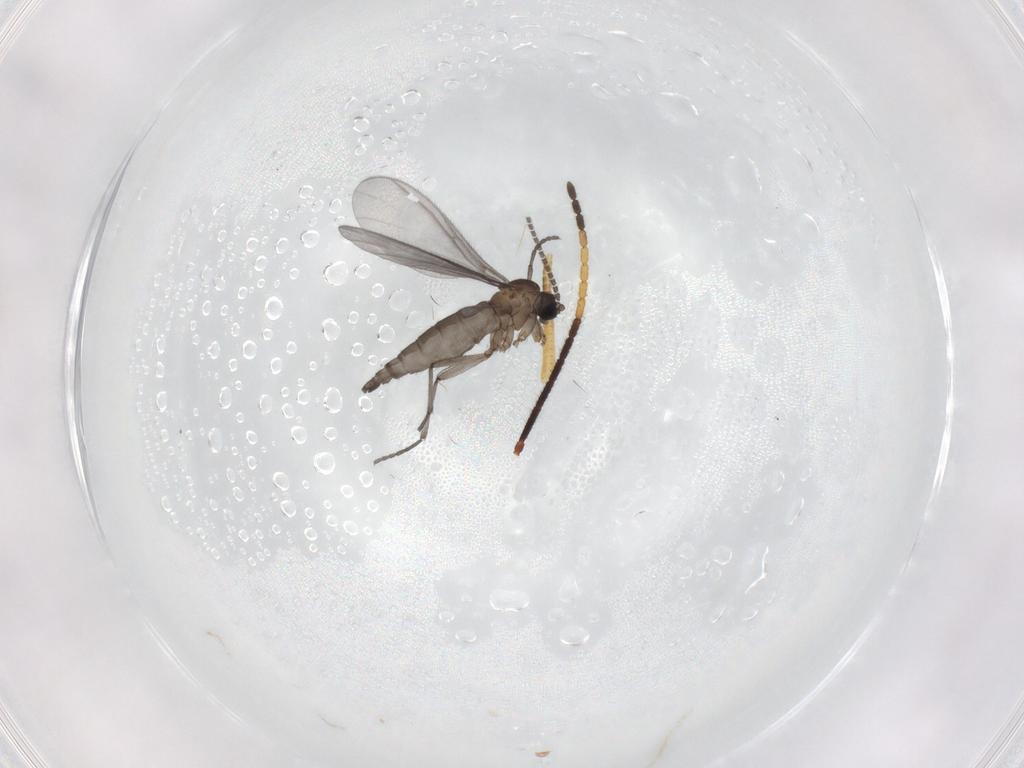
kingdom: Animalia
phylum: Arthropoda
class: Insecta
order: Diptera
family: Sciaridae
